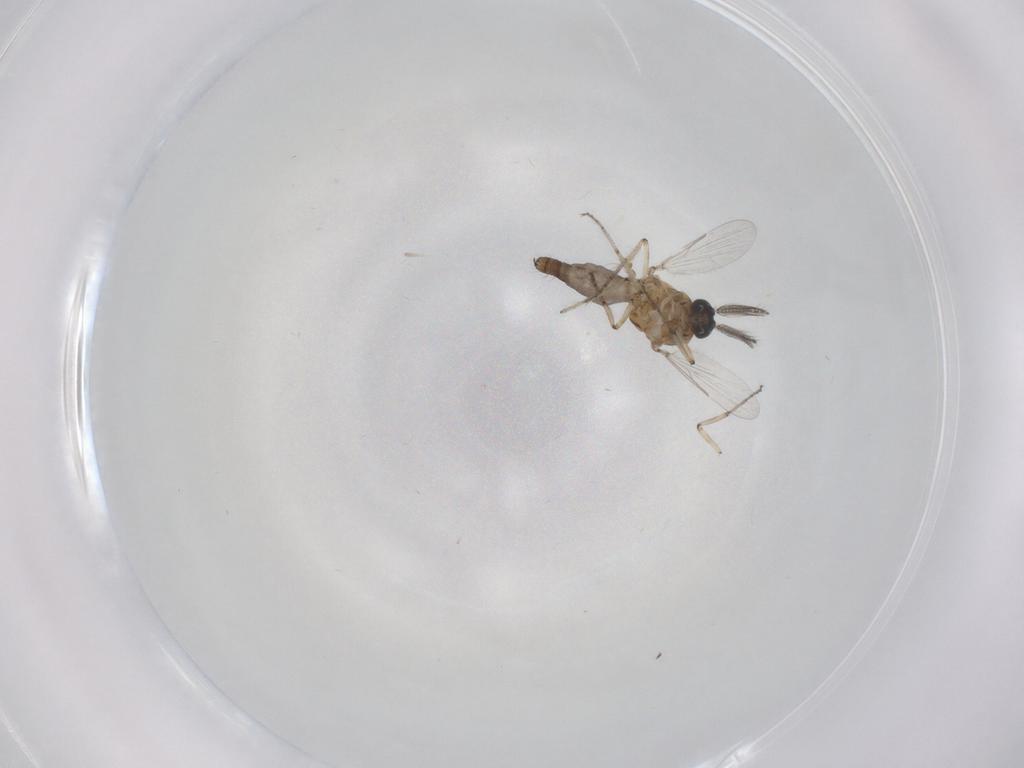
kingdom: Animalia
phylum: Arthropoda
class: Insecta
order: Diptera
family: Ceratopogonidae
